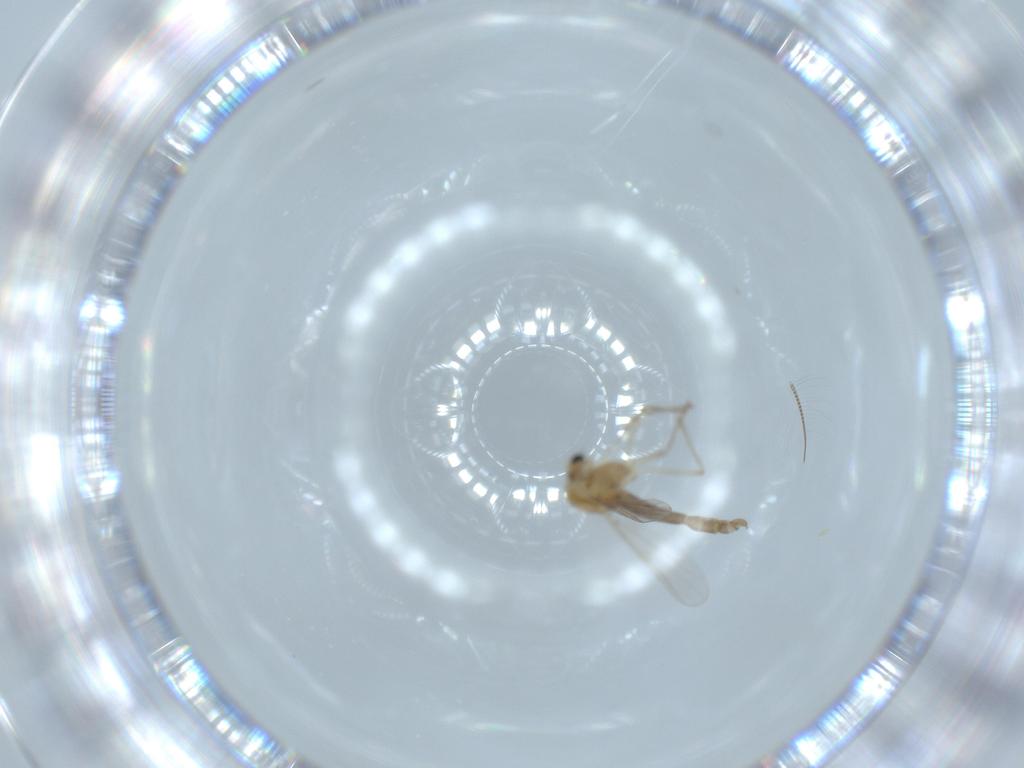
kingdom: Animalia
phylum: Arthropoda
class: Insecta
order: Diptera
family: Chironomidae
